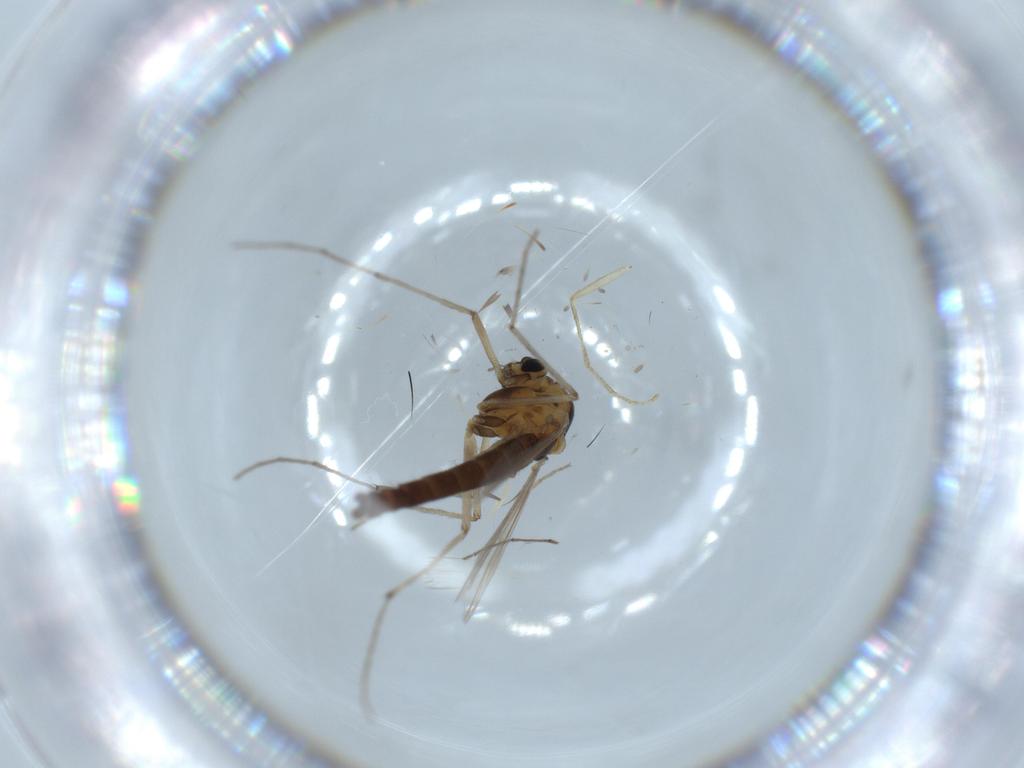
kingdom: Animalia
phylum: Arthropoda
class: Insecta
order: Diptera
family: Chironomidae
